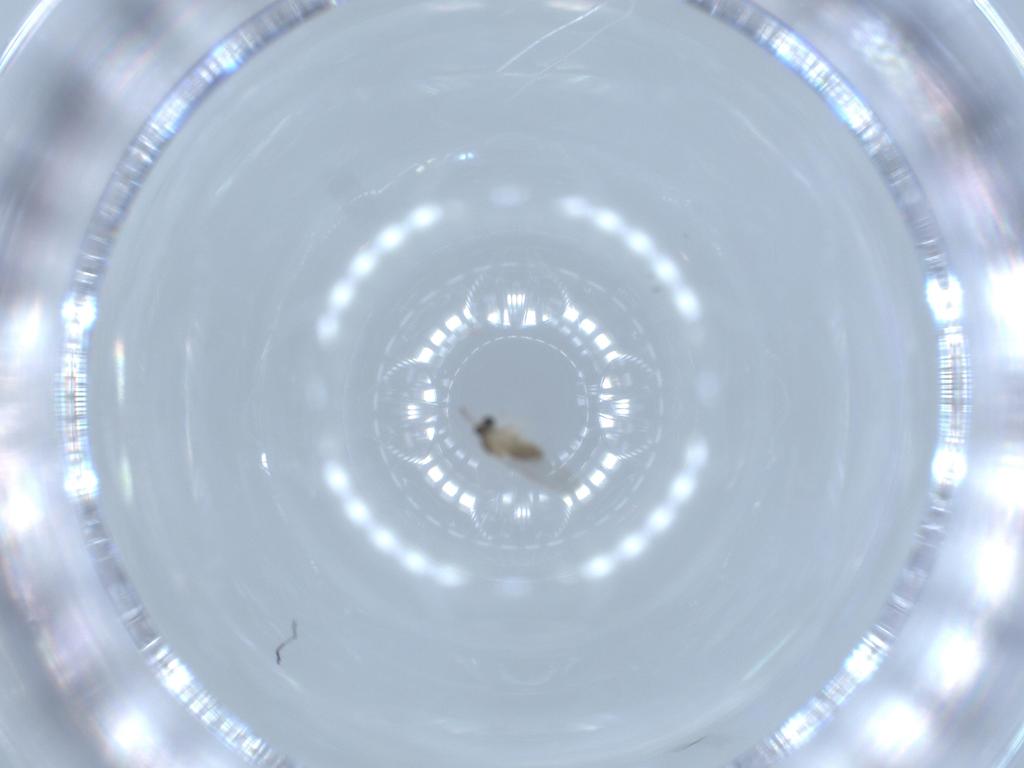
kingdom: Animalia
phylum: Arthropoda
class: Insecta
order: Diptera
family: Cecidomyiidae
